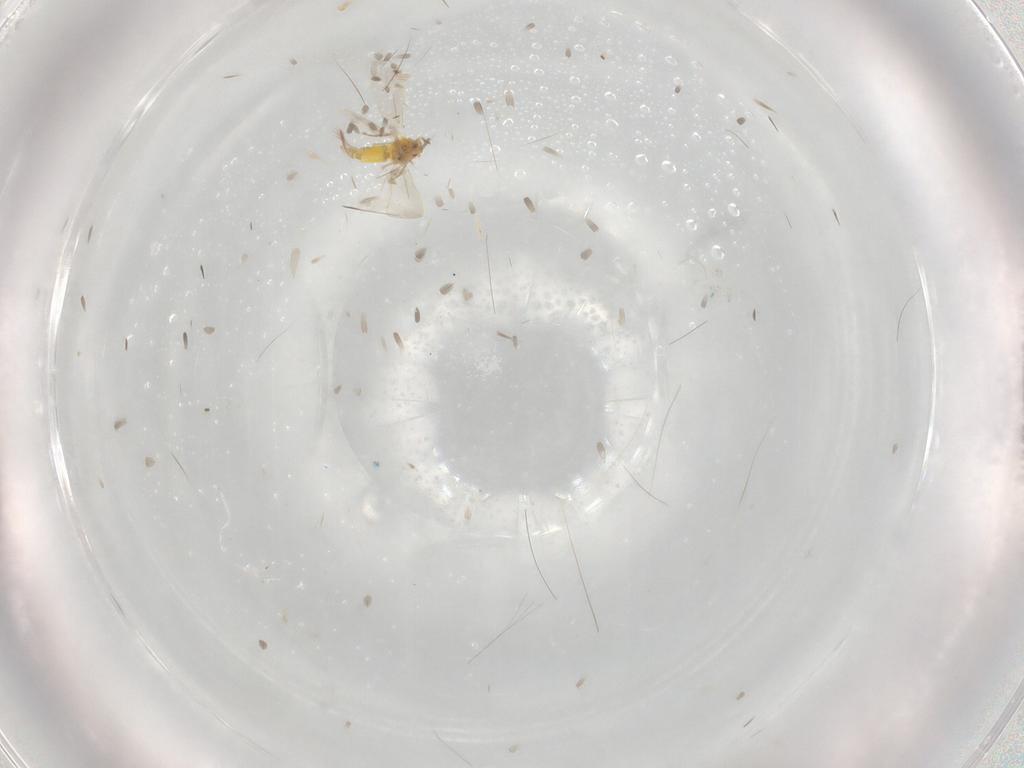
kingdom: Animalia
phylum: Arthropoda
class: Insecta
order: Hemiptera
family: Aleyrodidae
